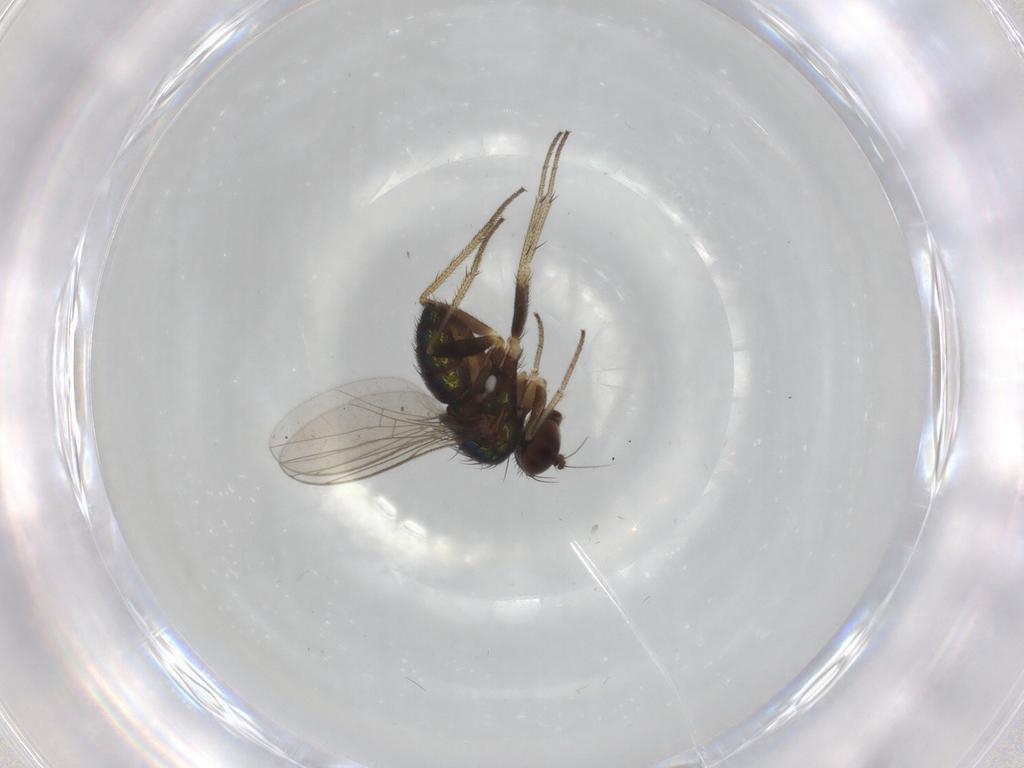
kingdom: Animalia
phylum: Arthropoda
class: Insecta
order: Diptera
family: Dolichopodidae
